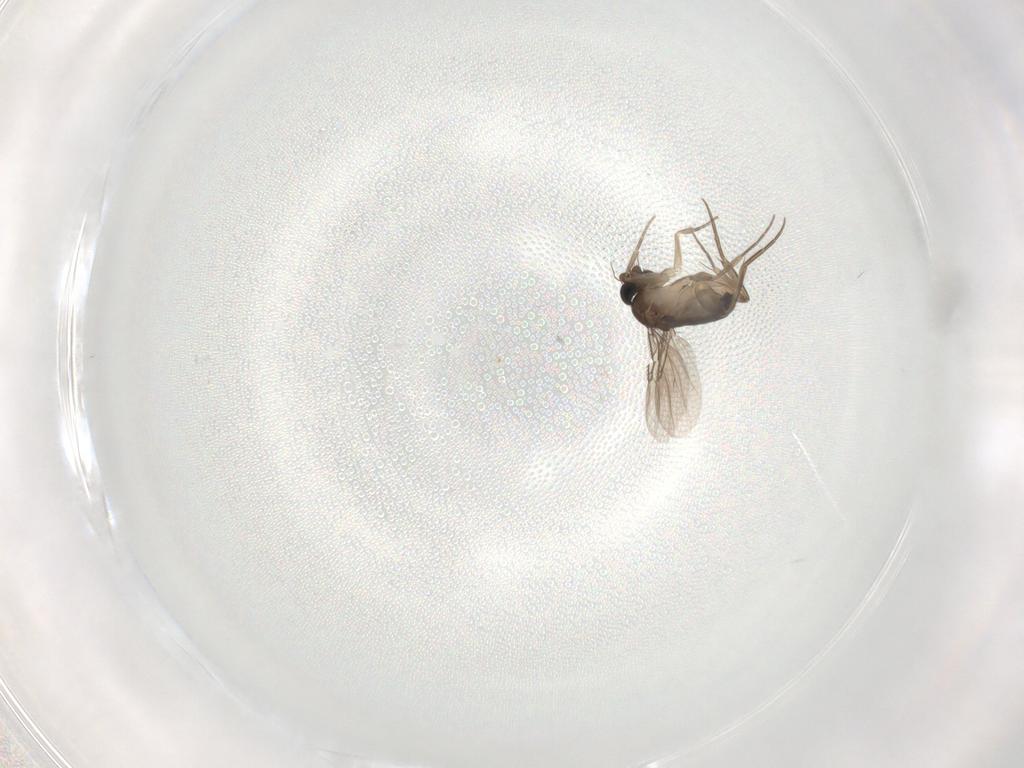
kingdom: Animalia
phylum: Arthropoda
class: Insecta
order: Diptera
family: Phoridae
